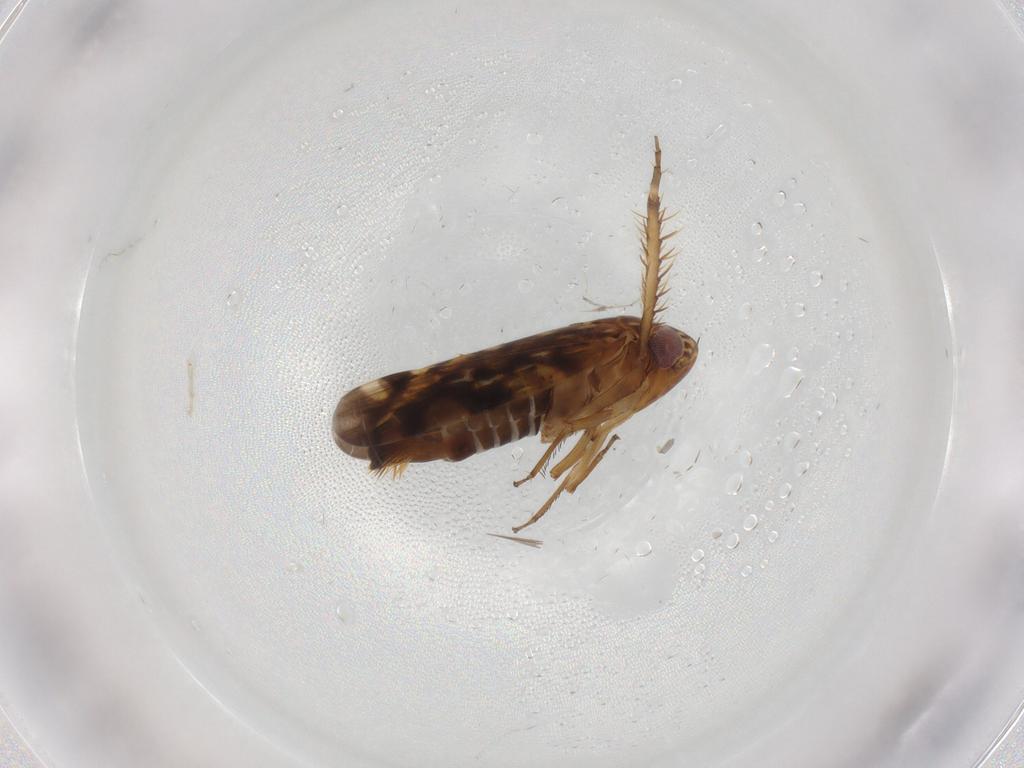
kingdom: Animalia
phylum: Arthropoda
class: Insecta
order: Hemiptera
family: Cicadellidae
